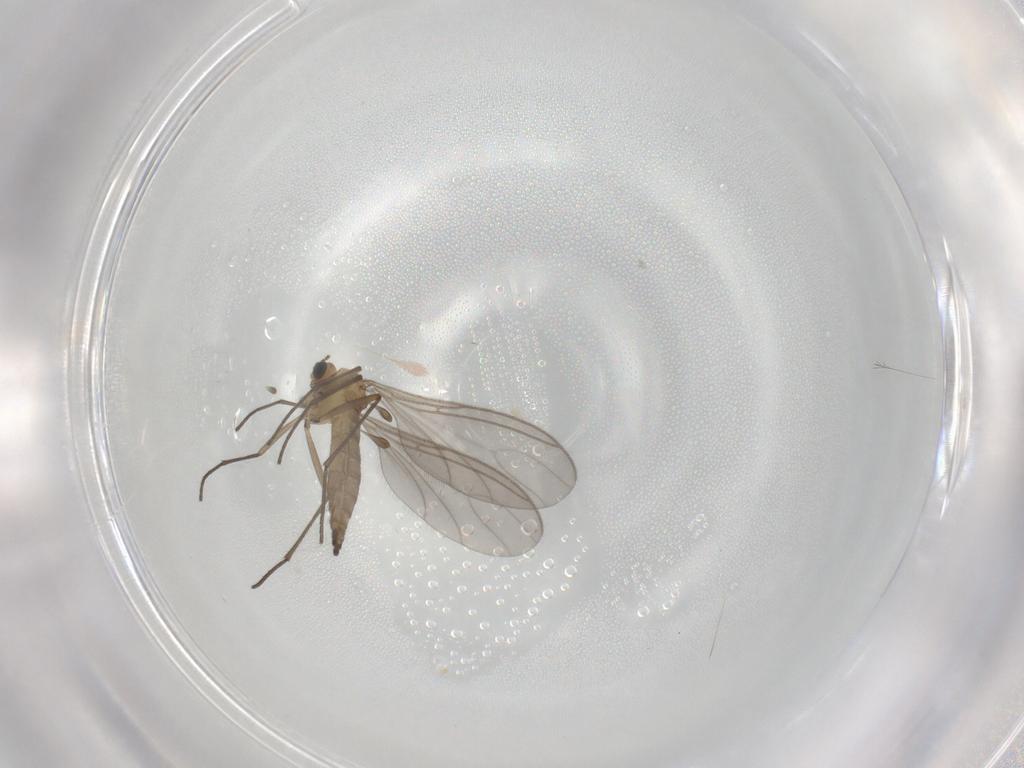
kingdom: Animalia
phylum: Arthropoda
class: Insecta
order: Diptera
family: Sciaridae
